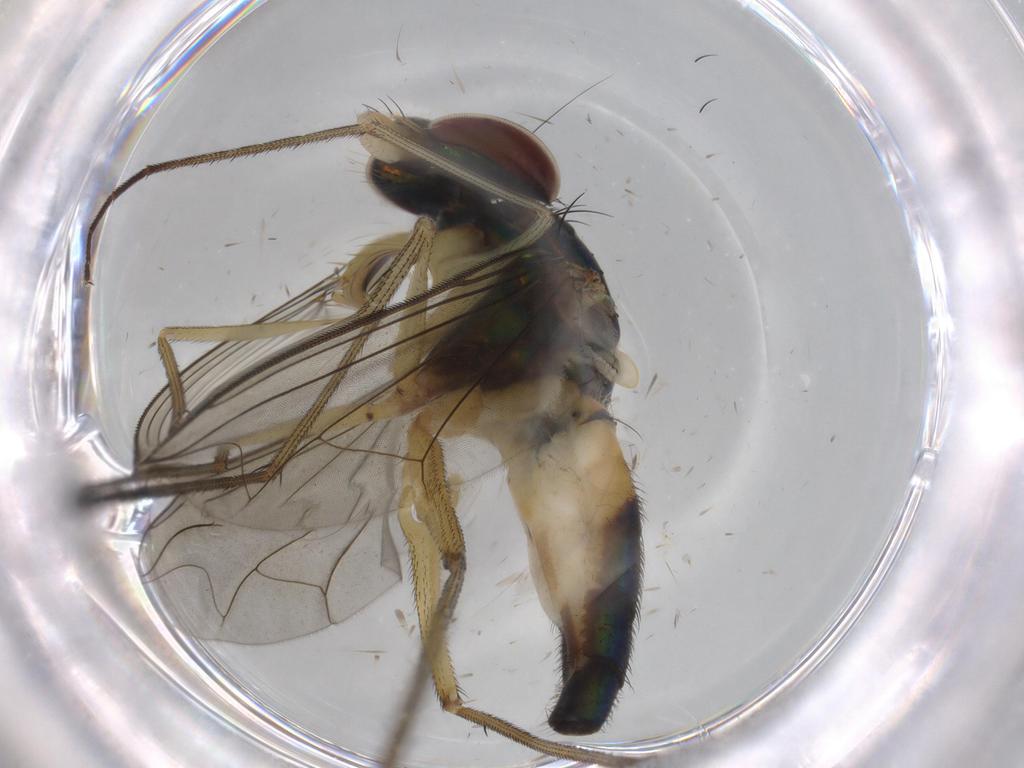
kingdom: Animalia
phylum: Arthropoda
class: Insecta
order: Diptera
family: Dolichopodidae
